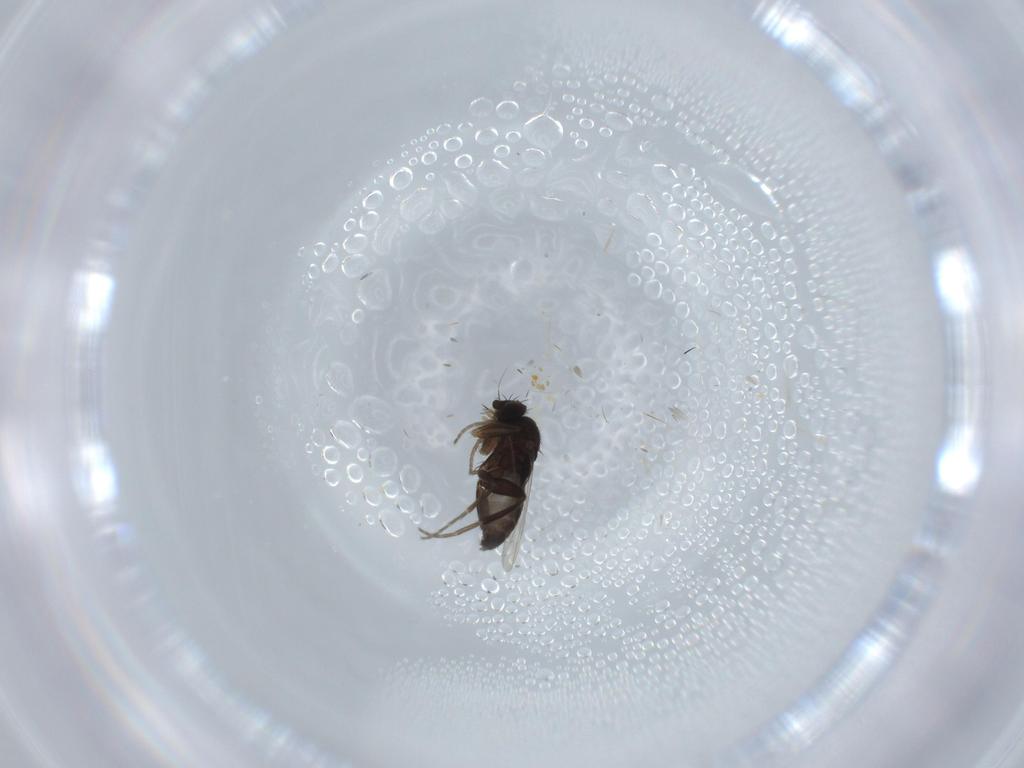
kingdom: Animalia
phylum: Arthropoda
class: Insecta
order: Diptera
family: Phoridae
